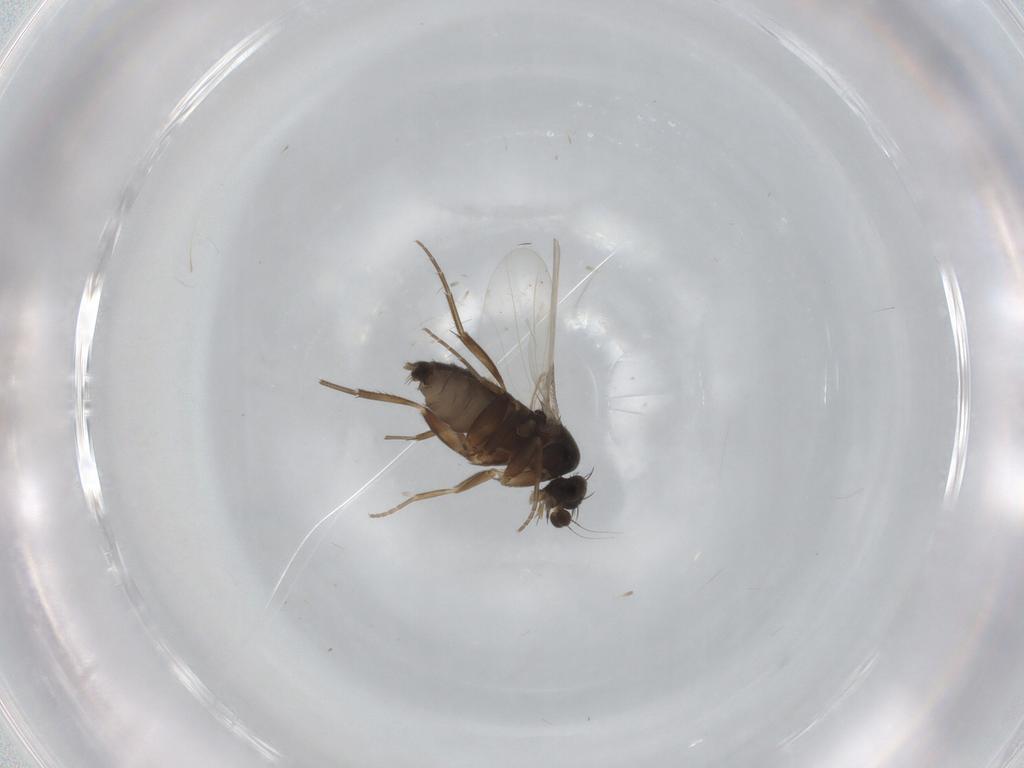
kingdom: Animalia
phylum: Arthropoda
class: Insecta
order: Diptera
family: Phoridae
